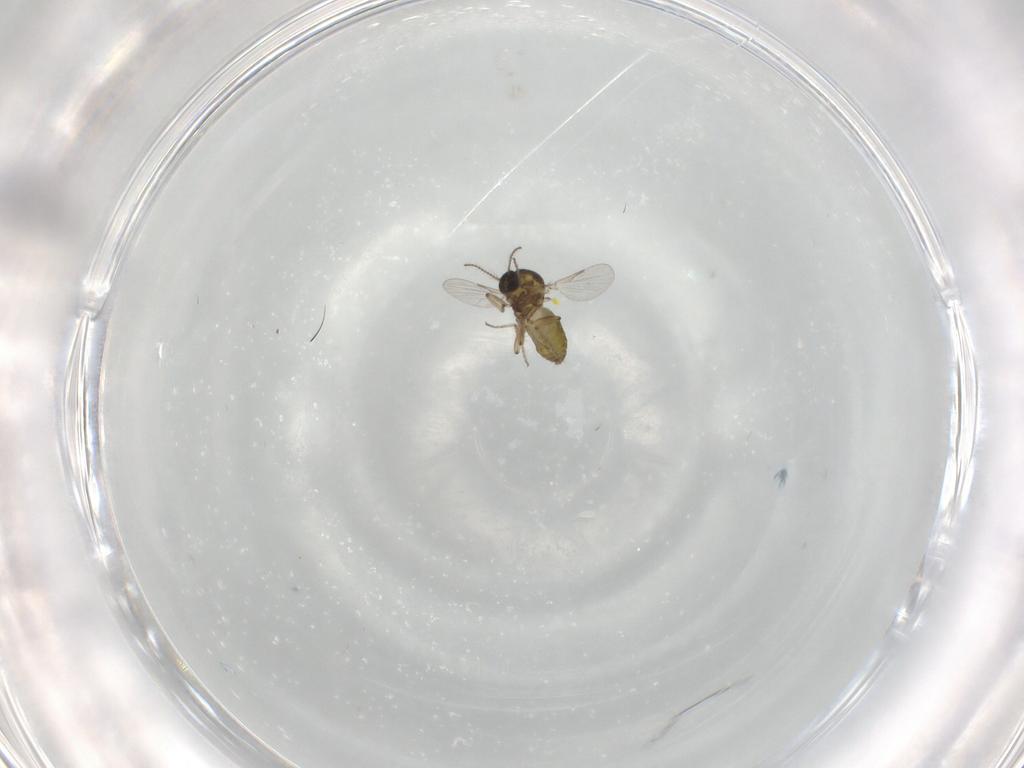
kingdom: Animalia
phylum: Arthropoda
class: Insecta
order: Diptera
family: Ceratopogonidae
